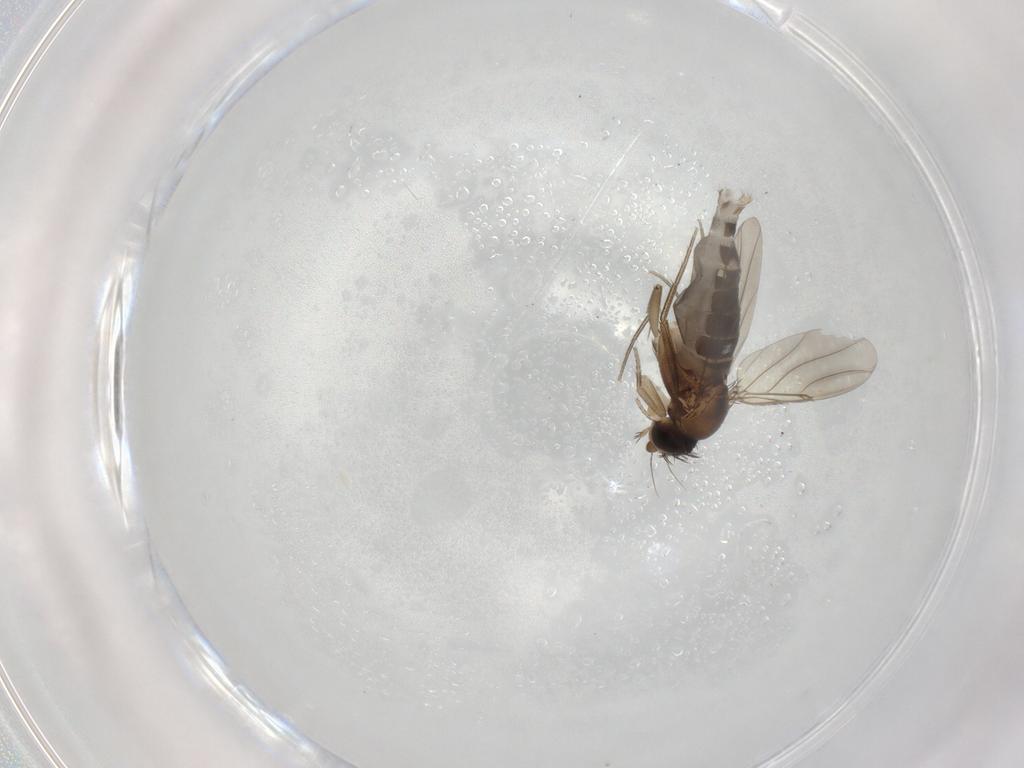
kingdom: Animalia
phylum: Arthropoda
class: Insecta
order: Diptera
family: Phoridae
